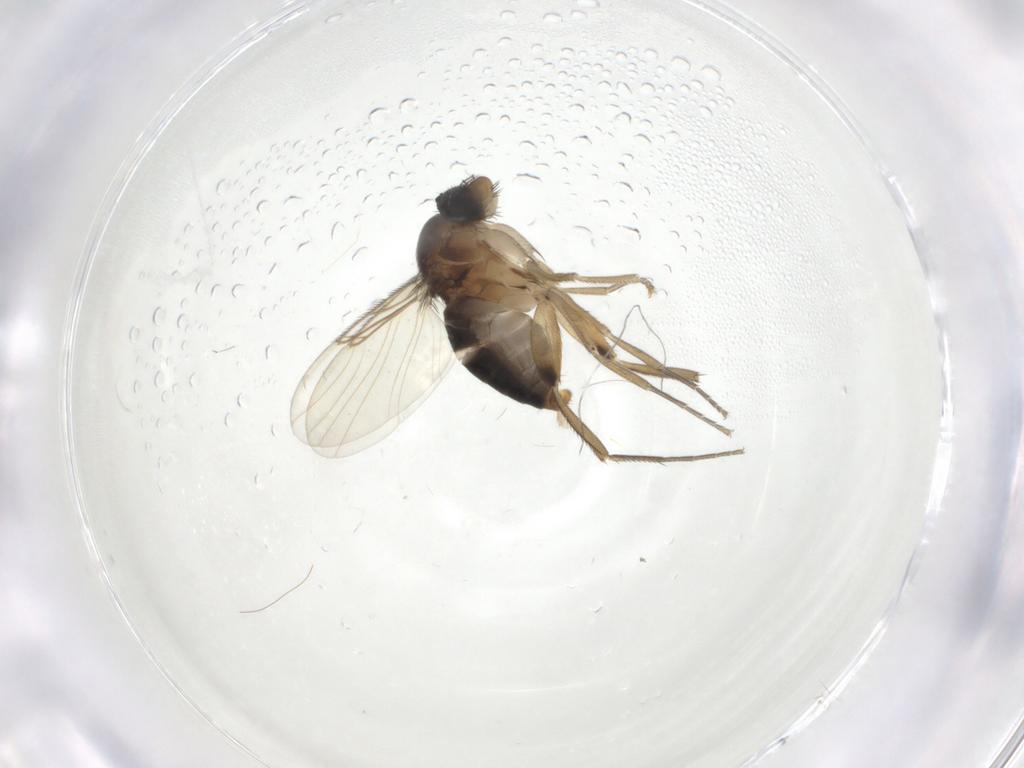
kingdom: Animalia
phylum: Arthropoda
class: Insecta
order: Diptera
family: Phoridae
